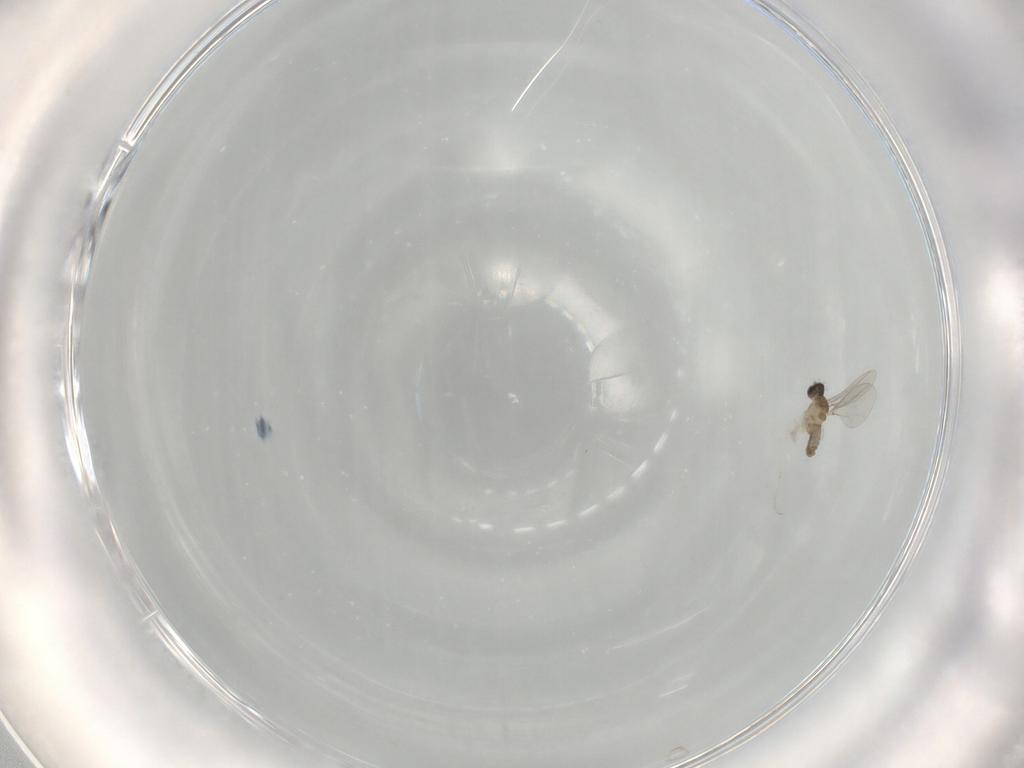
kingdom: Animalia
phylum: Arthropoda
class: Insecta
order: Diptera
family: Cecidomyiidae
